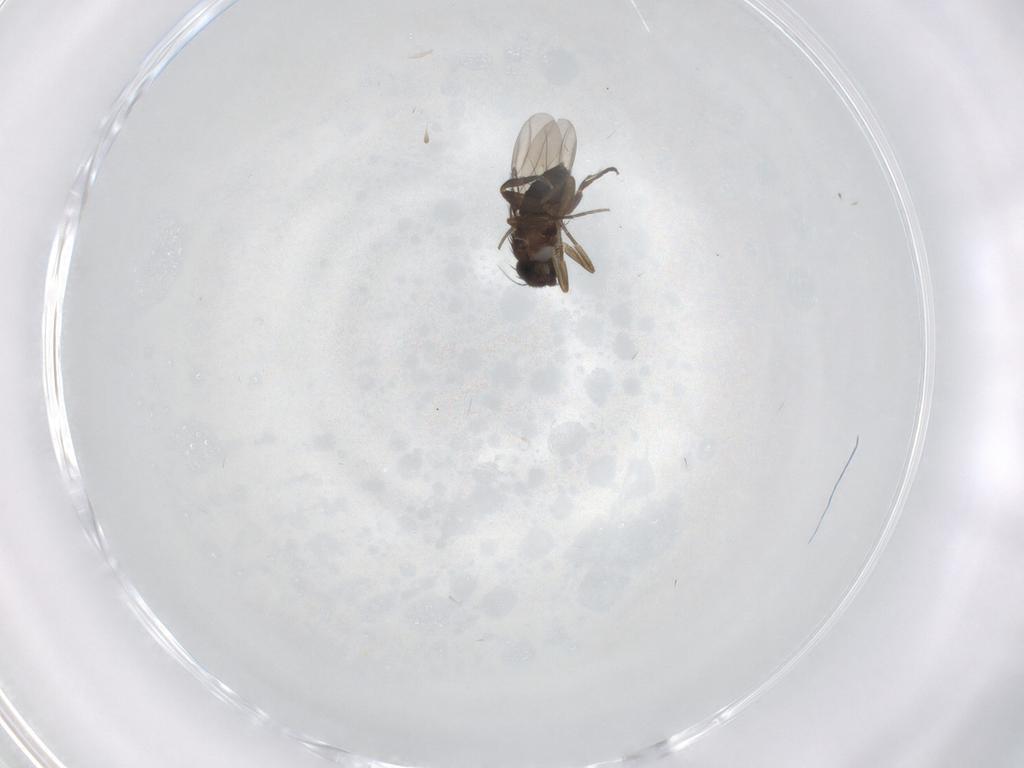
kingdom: Animalia
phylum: Arthropoda
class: Insecta
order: Diptera
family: Phoridae
